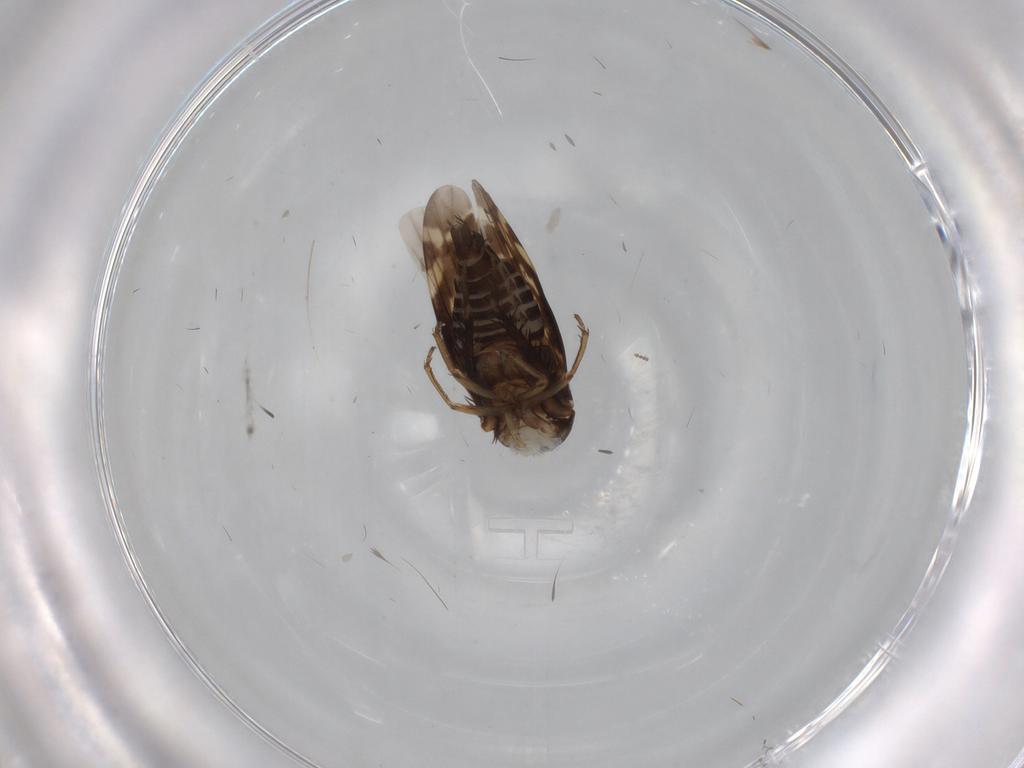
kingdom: Animalia
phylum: Arthropoda
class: Insecta
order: Hemiptera
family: Cicadellidae
